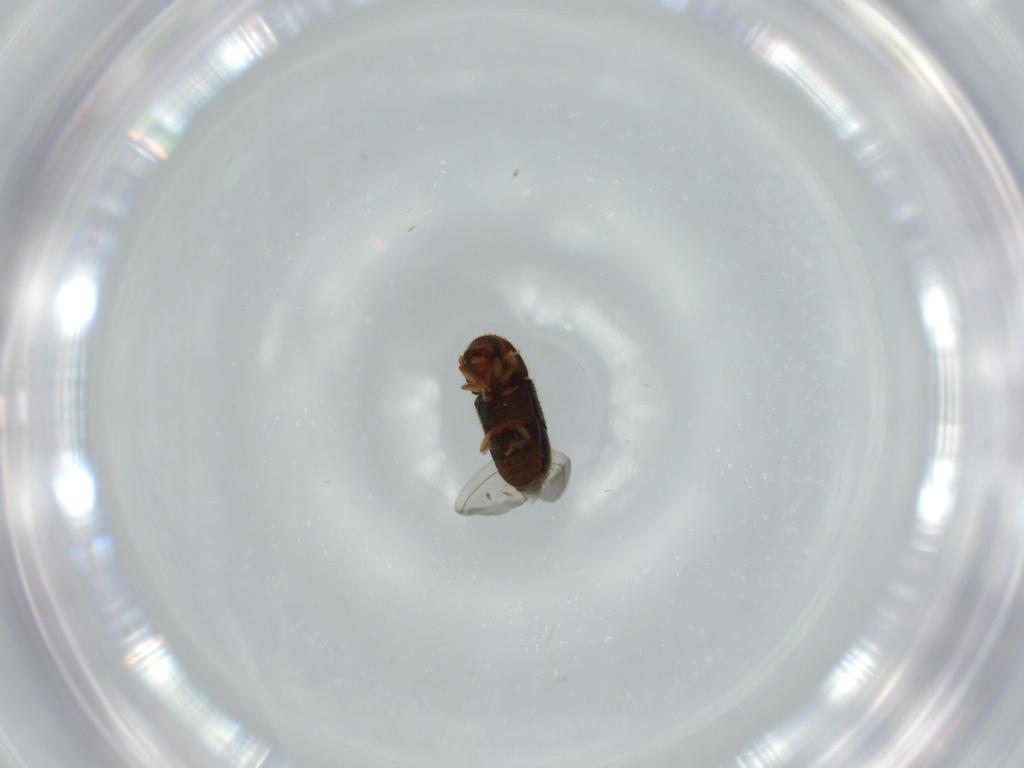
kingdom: Animalia
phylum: Arthropoda
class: Insecta
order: Coleoptera
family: Curculionidae
